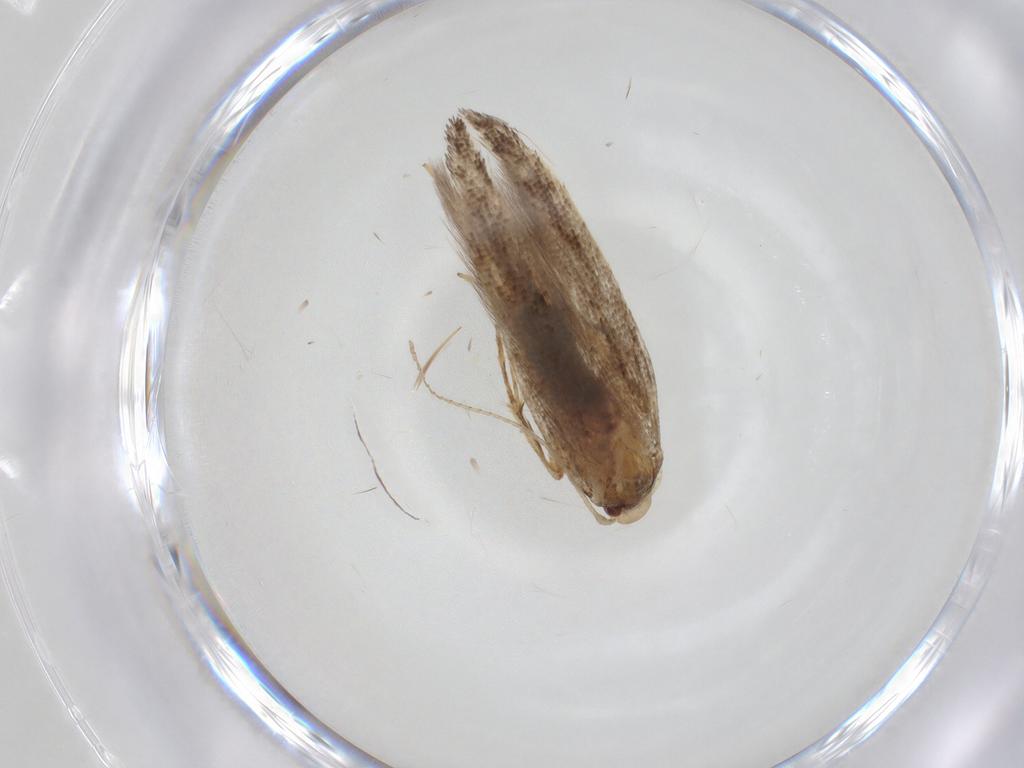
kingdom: Animalia
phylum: Arthropoda
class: Insecta
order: Lepidoptera
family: Cosmopterigidae
